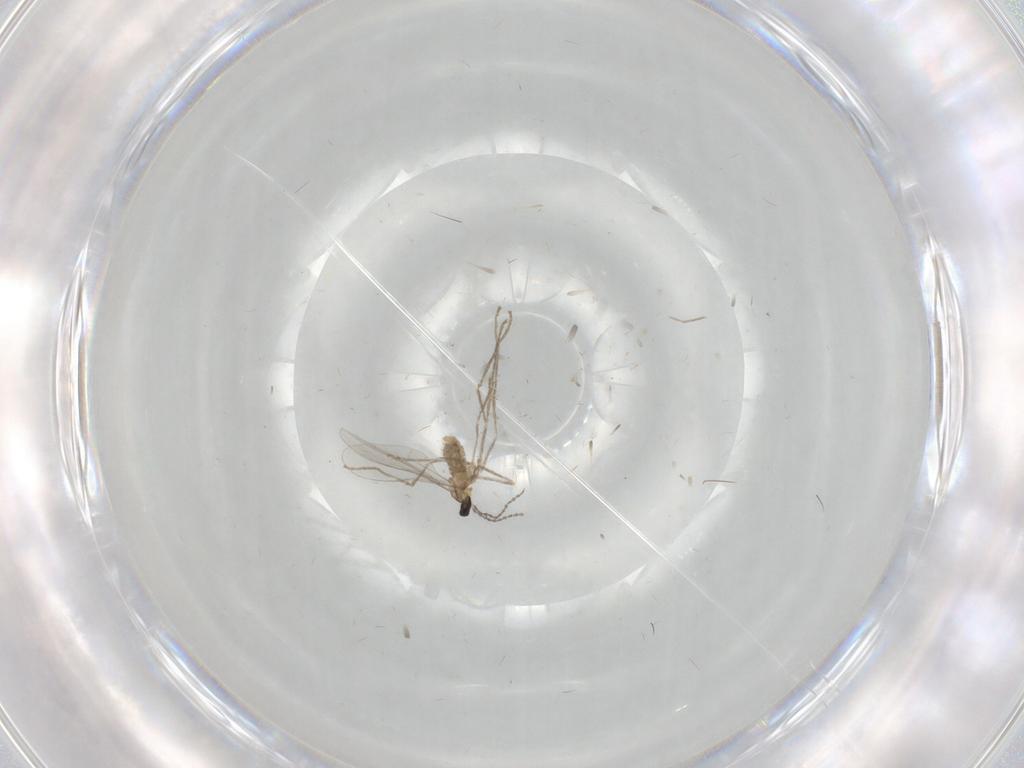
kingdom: Animalia
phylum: Arthropoda
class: Insecta
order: Diptera
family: Cecidomyiidae
